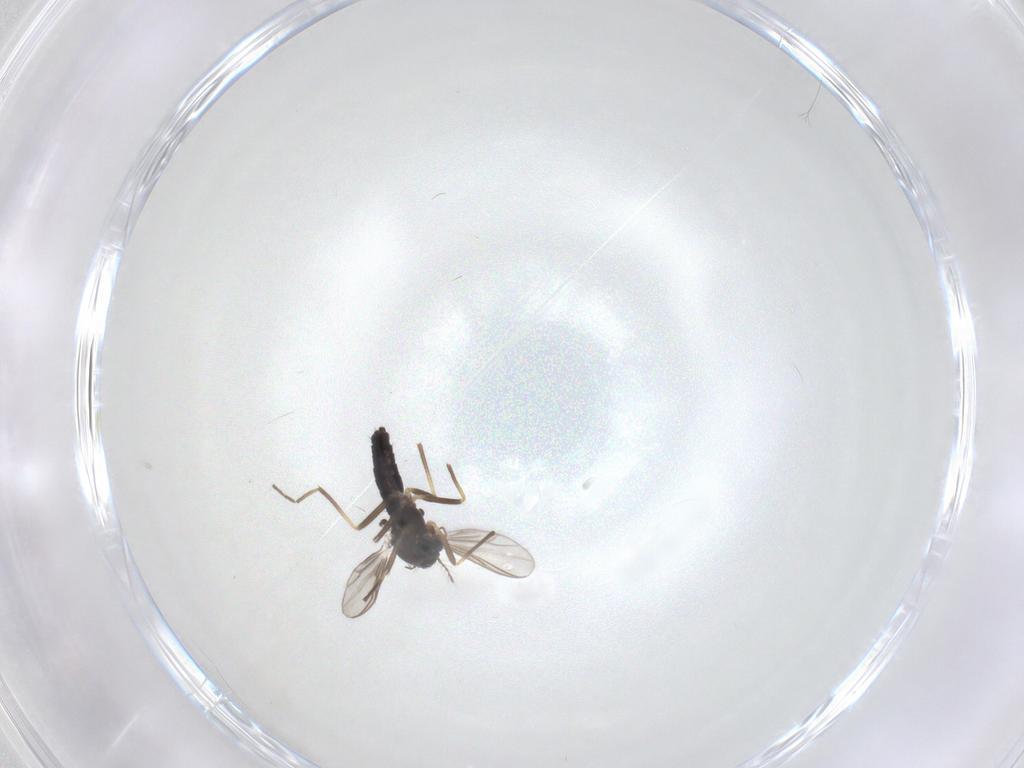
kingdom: Animalia
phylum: Arthropoda
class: Insecta
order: Diptera
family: Chironomidae
